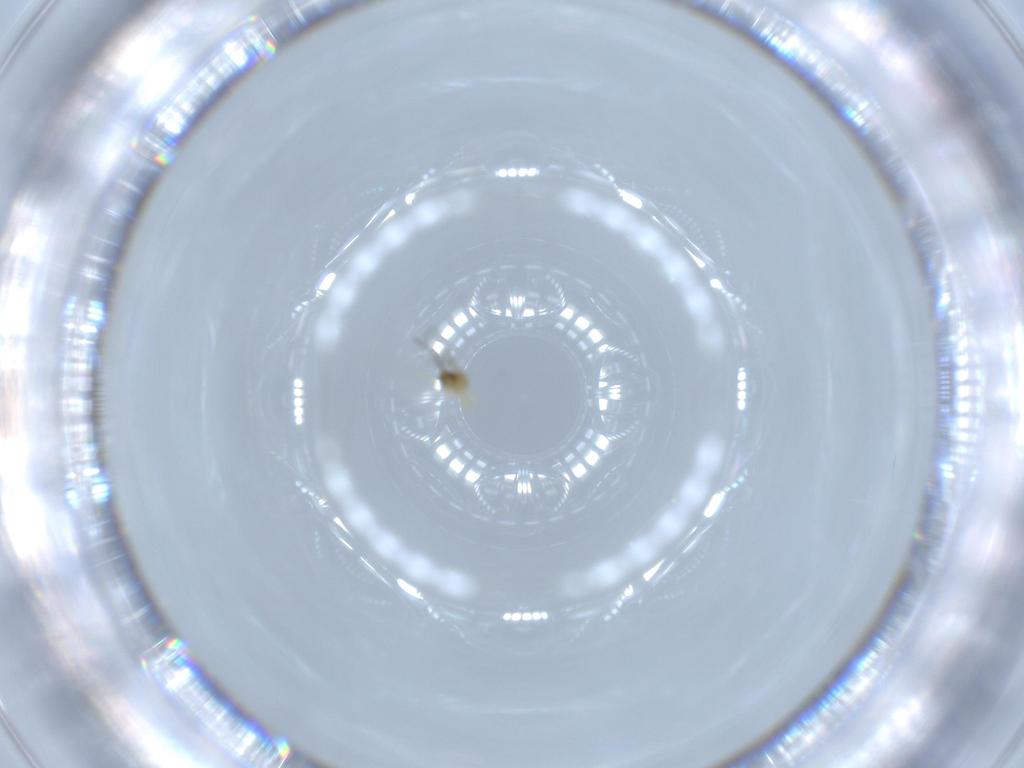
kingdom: Animalia
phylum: Arthropoda
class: Insecta
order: Hymenoptera
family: Trichogrammatidae
